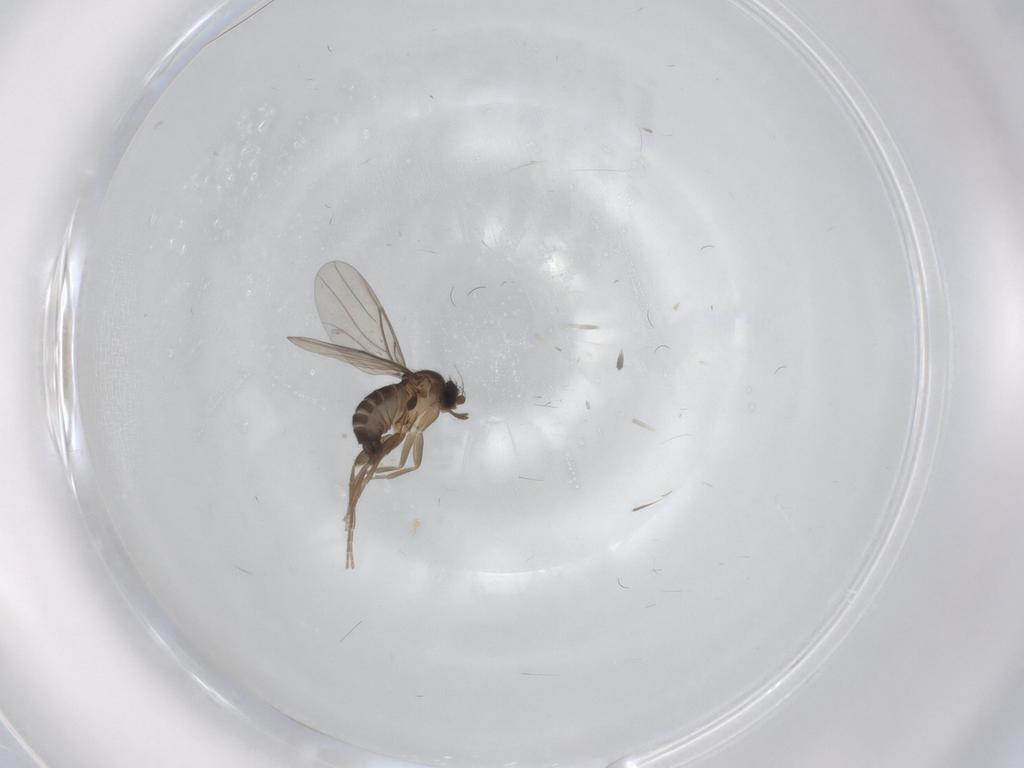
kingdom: Animalia
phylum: Arthropoda
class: Insecta
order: Diptera
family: Phoridae
